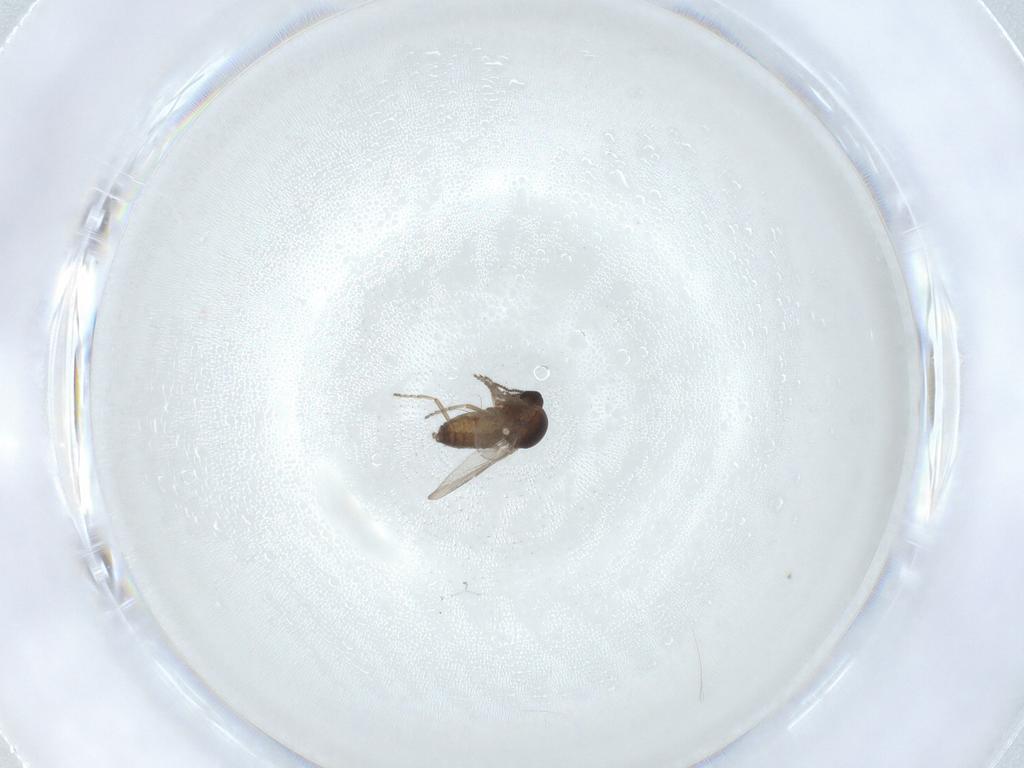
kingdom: Animalia
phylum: Arthropoda
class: Insecta
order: Diptera
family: Ceratopogonidae
